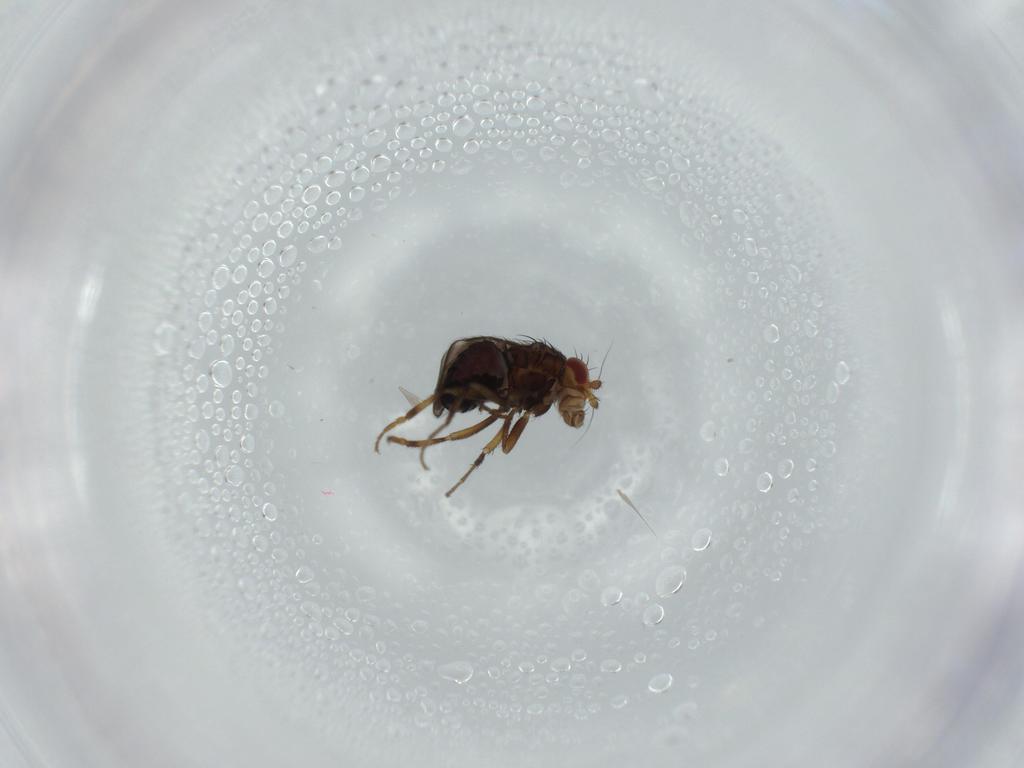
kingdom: Animalia
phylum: Arthropoda
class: Insecta
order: Diptera
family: Sphaeroceridae
